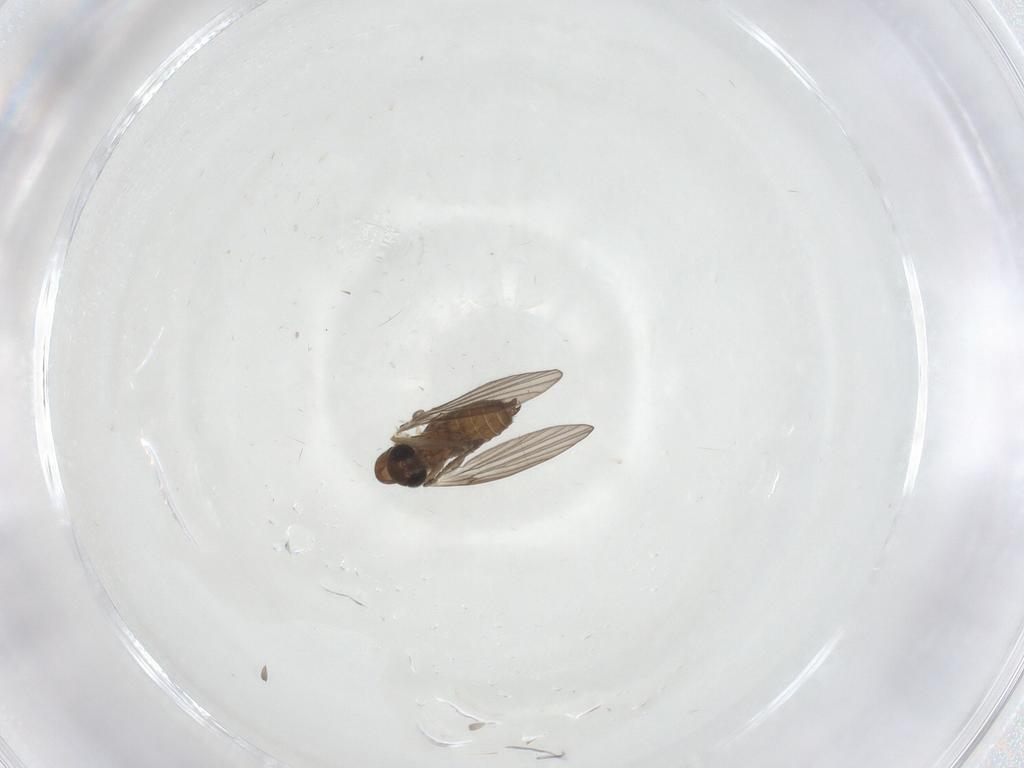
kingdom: Animalia
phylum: Arthropoda
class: Insecta
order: Diptera
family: Psychodidae
